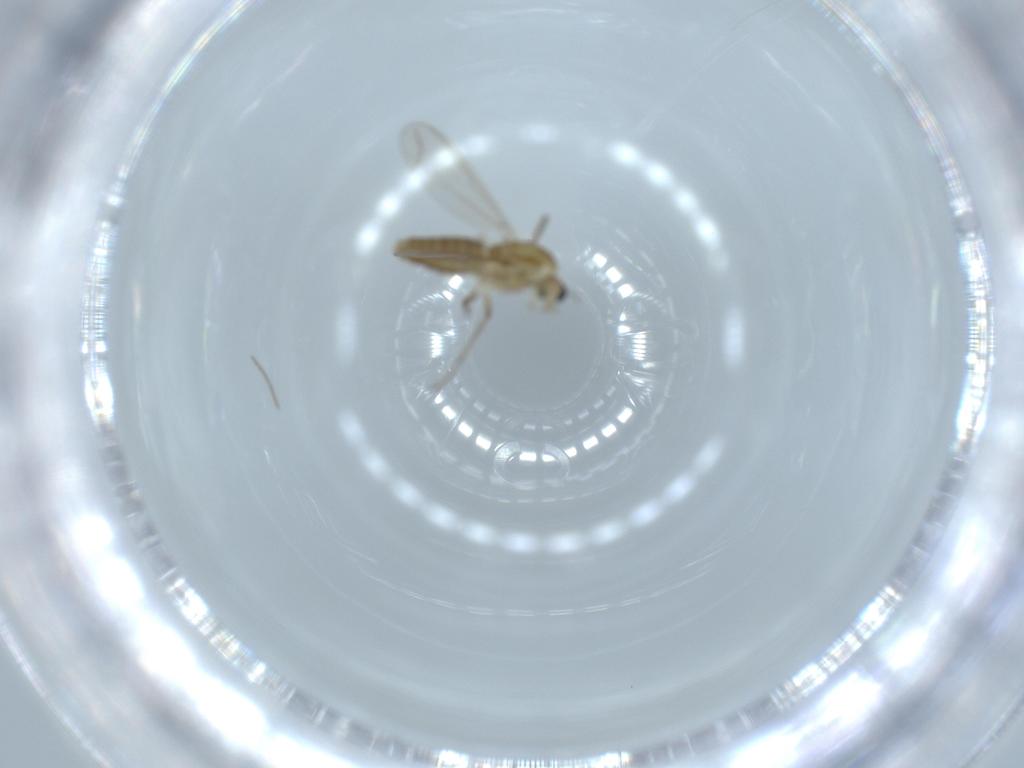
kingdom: Animalia
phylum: Arthropoda
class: Insecta
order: Diptera
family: Chironomidae
